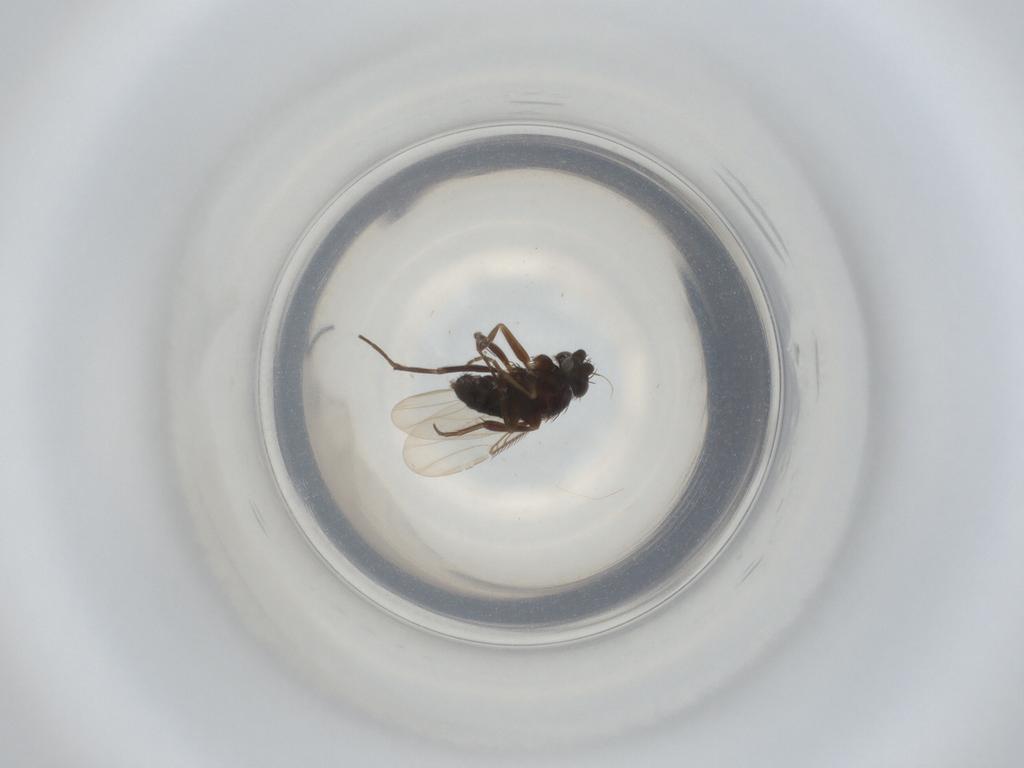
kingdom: Animalia
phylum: Arthropoda
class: Insecta
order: Diptera
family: Phoridae
